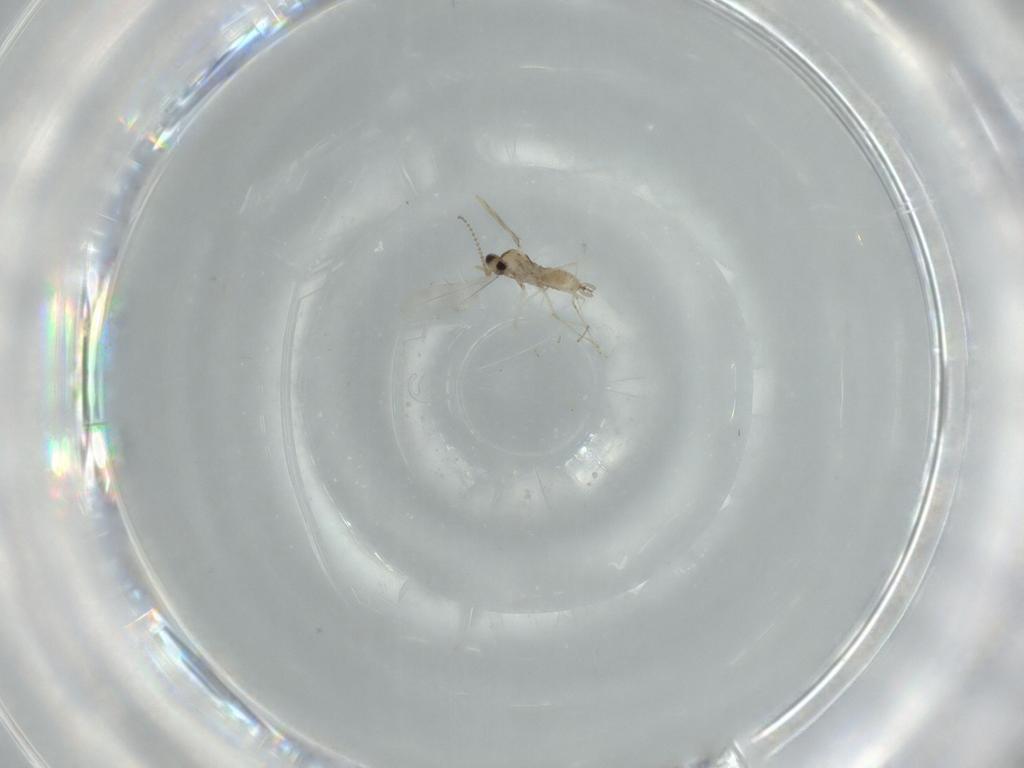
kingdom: Animalia
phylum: Arthropoda
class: Insecta
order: Diptera
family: Cecidomyiidae
